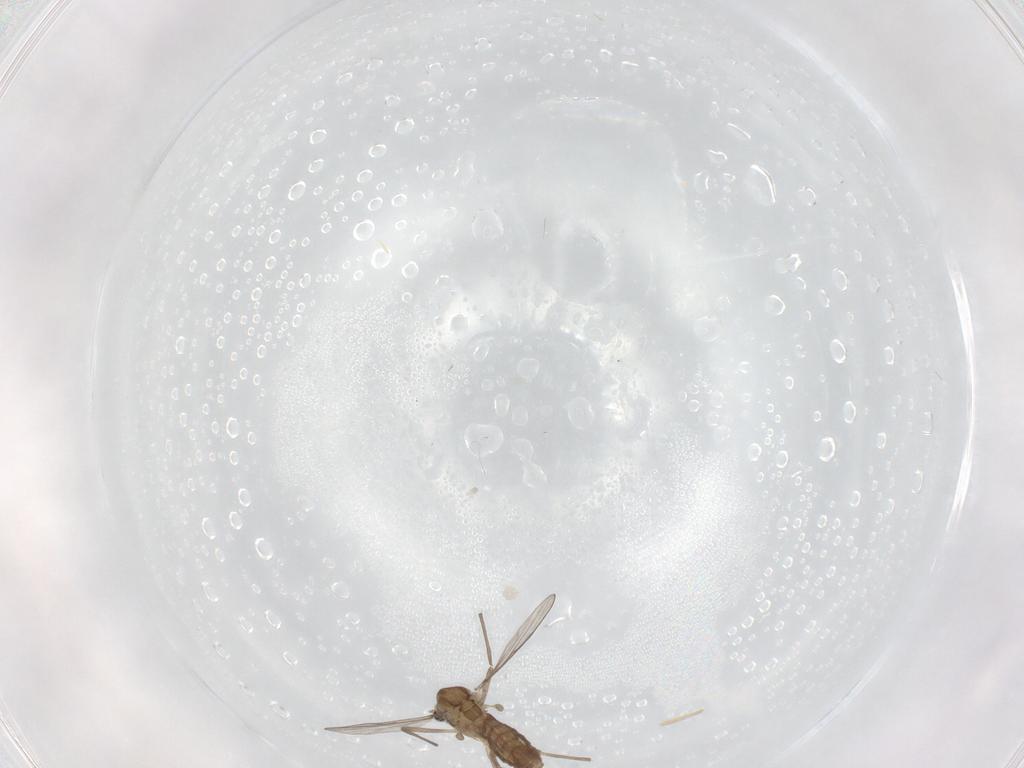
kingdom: Animalia
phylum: Arthropoda
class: Insecta
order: Diptera
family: Chironomidae
